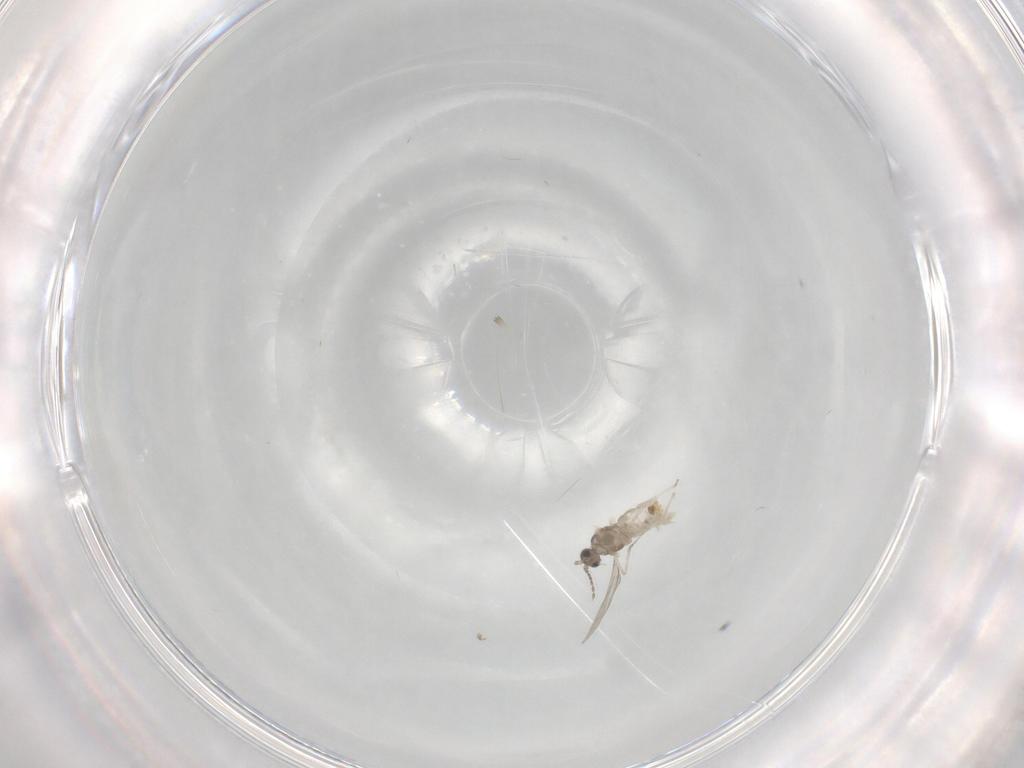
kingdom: Animalia
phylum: Arthropoda
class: Insecta
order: Diptera
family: Cecidomyiidae
